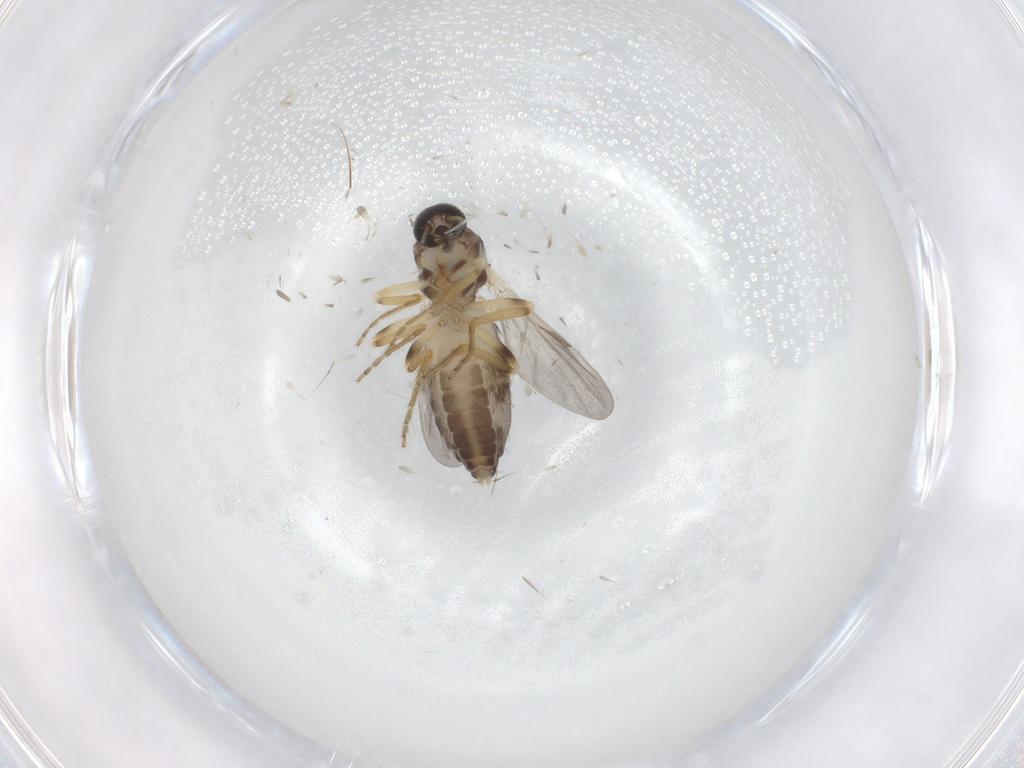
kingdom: Animalia
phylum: Arthropoda
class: Insecta
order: Diptera
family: Ceratopogonidae
